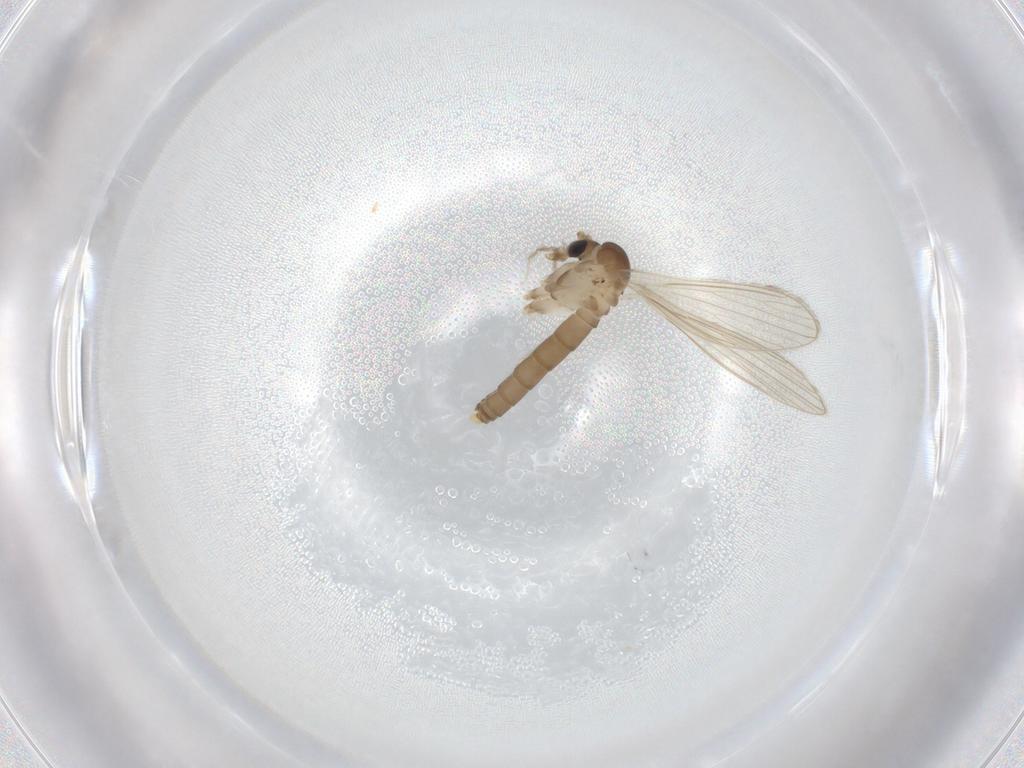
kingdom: Animalia
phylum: Arthropoda
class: Insecta
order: Diptera
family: Psychodidae
